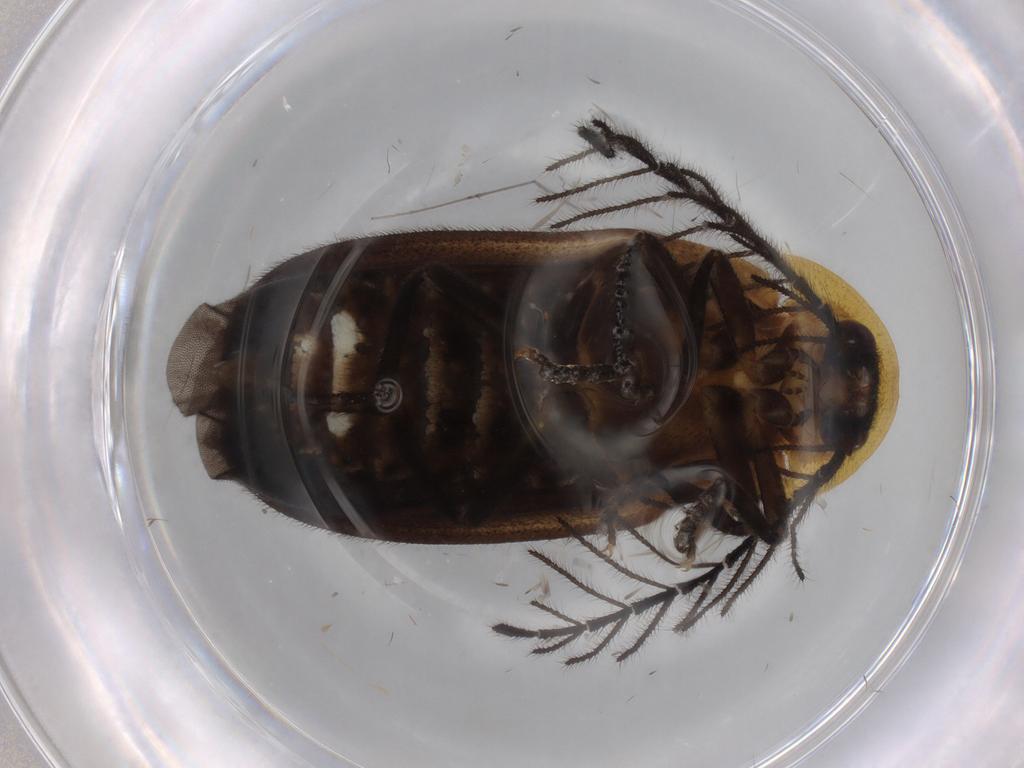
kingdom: Animalia
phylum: Arthropoda
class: Insecta
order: Coleoptera
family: Curculionidae
